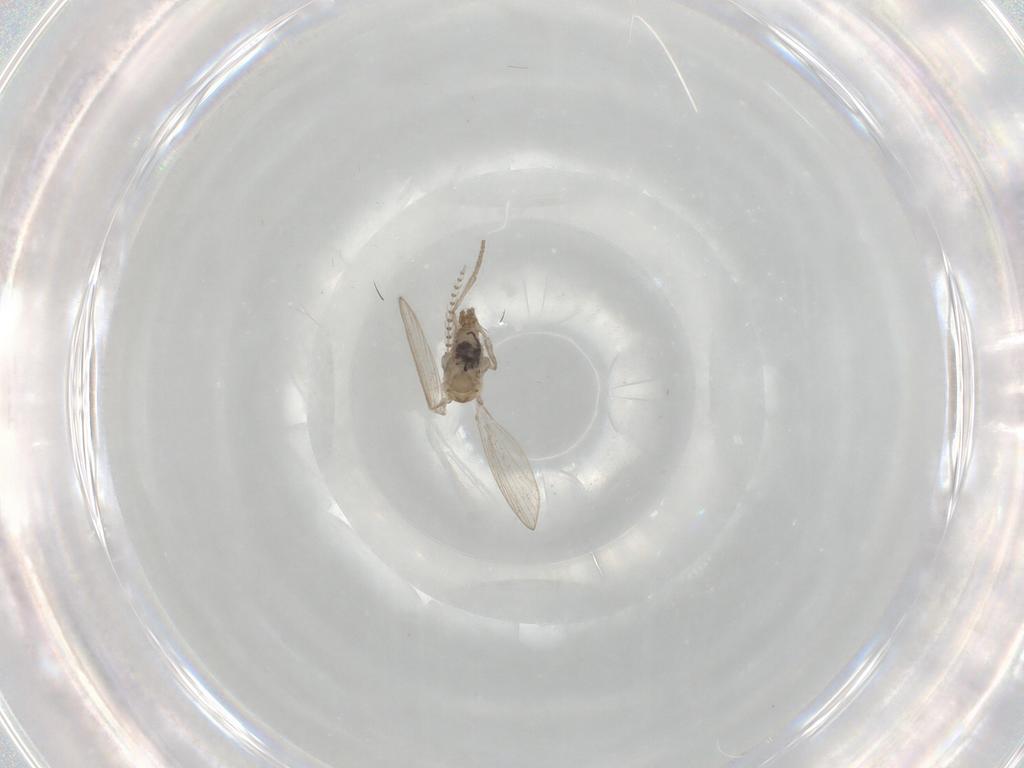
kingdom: Animalia
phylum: Arthropoda
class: Insecta
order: Diptera
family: Psychodidae
